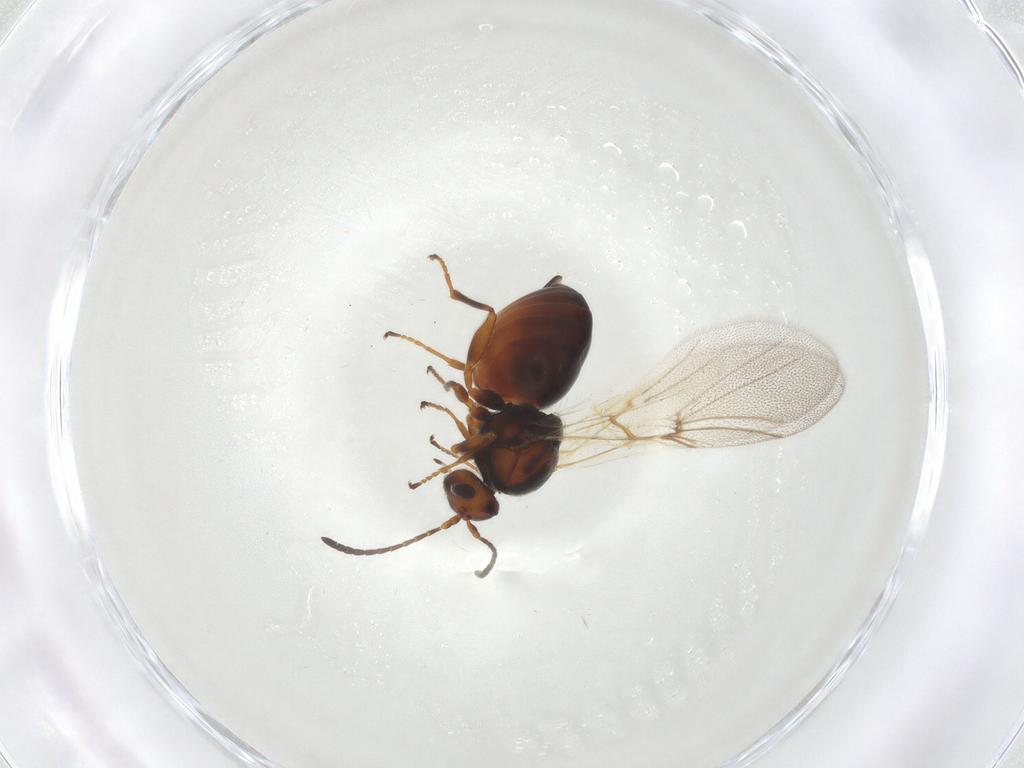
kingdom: Animalia
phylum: Arthropoda
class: Insecta
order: Hymenoptera
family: Cynipidae
